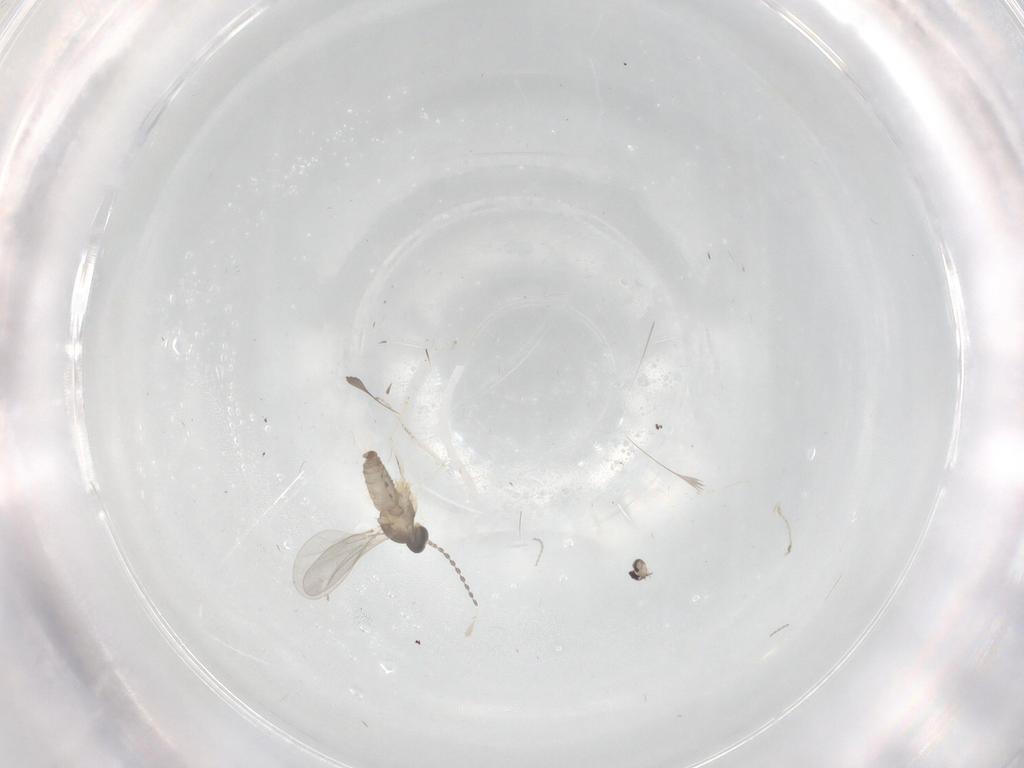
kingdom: Animalia
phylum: Arthropoda
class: Insecta
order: Diptera
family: Cecidomyiidae
